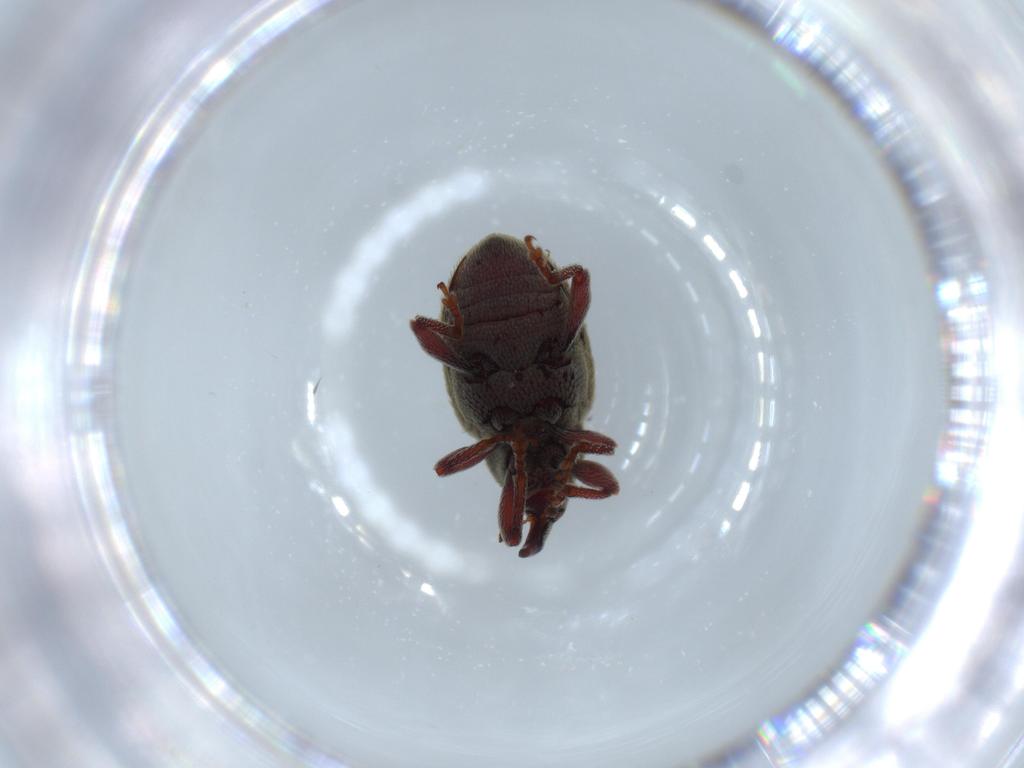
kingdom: Animalia
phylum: Arthropoda
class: Insecta
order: Coleoptera
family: Curculionidae
